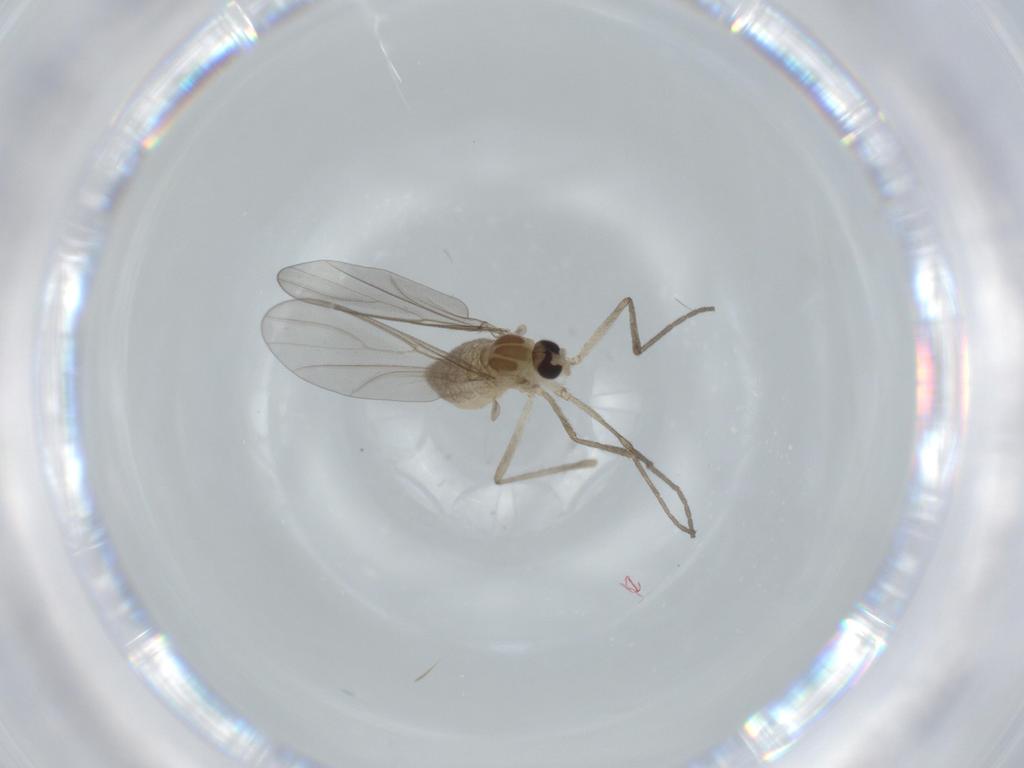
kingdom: Animalia
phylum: Arthropoda
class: Insecta
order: Diptera
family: Cecidomyiidae
